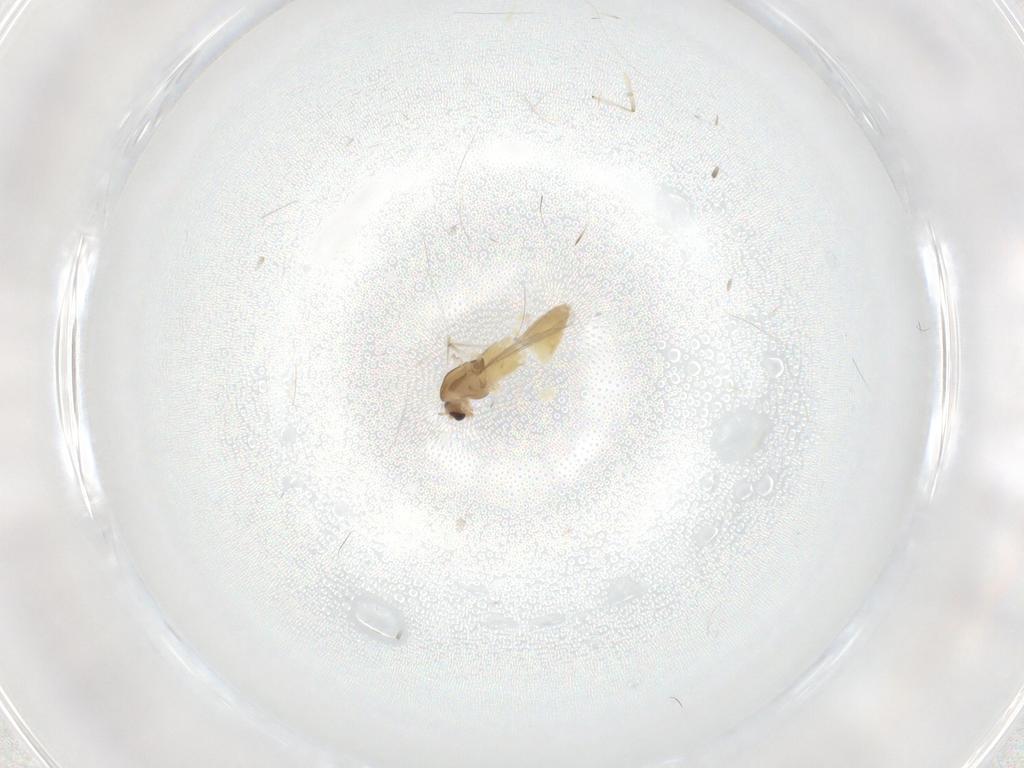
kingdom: Animalia
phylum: Arthropoda
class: Insecta
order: Diptera
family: Chironomidae
